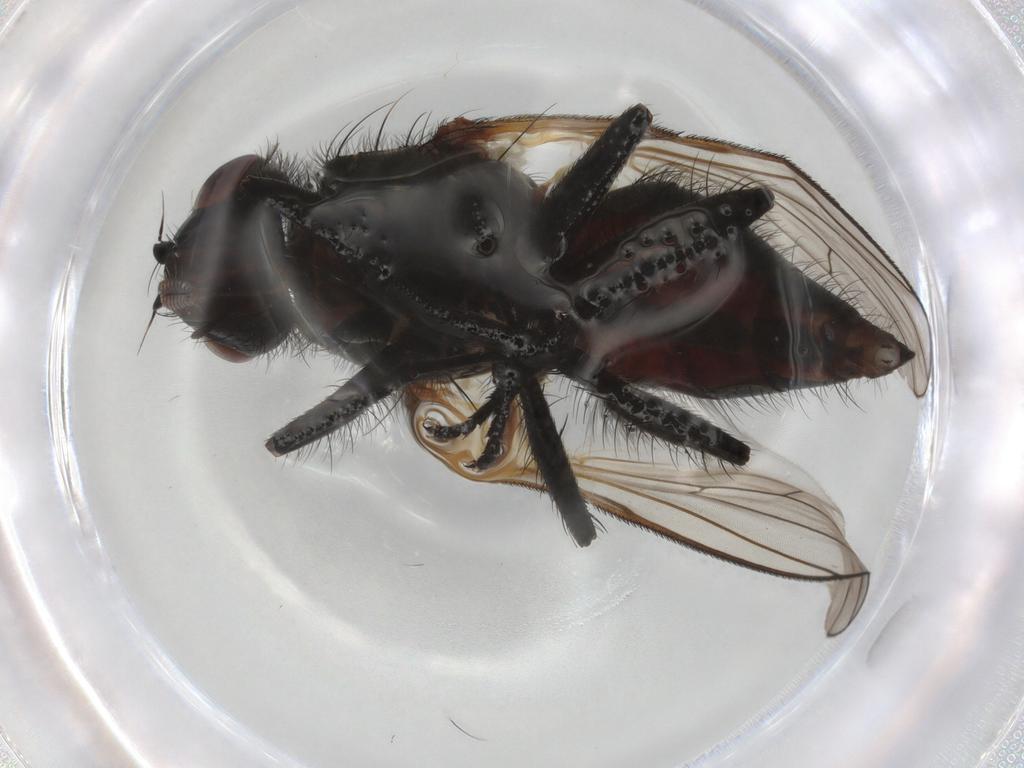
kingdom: Animalia
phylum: Arthropoda
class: Insecta
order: Diptera
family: Anthomyiidae
